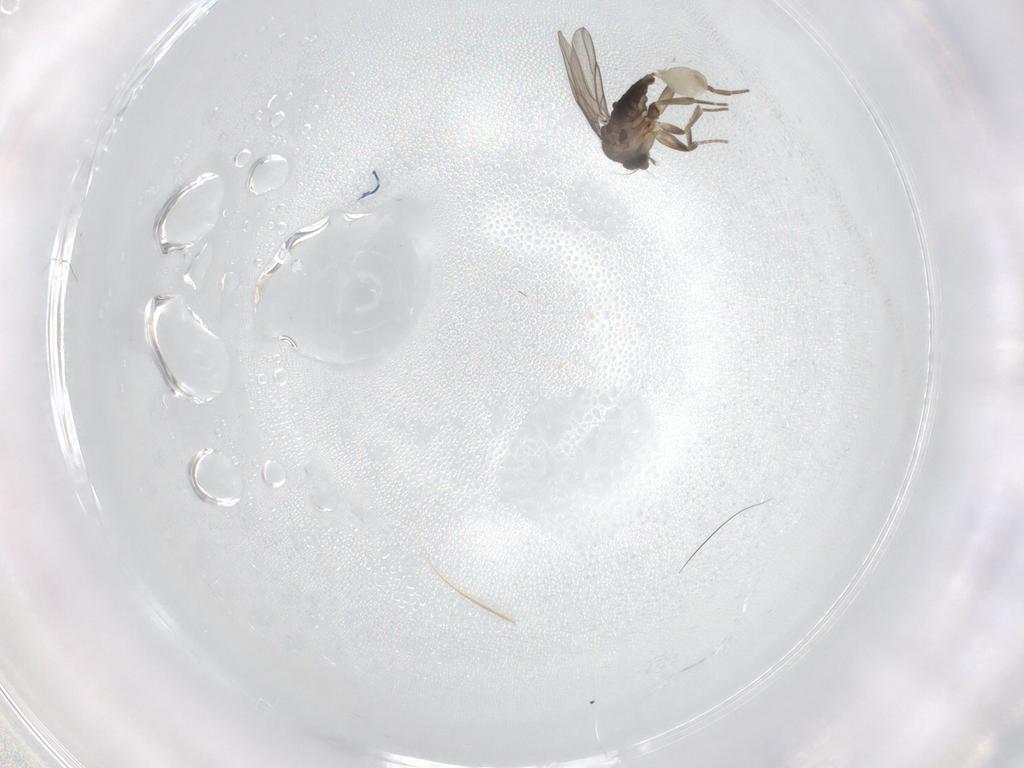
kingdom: Animalia
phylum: Arthropoda
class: Insecta
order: Diptera
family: Cecidomyiidae
